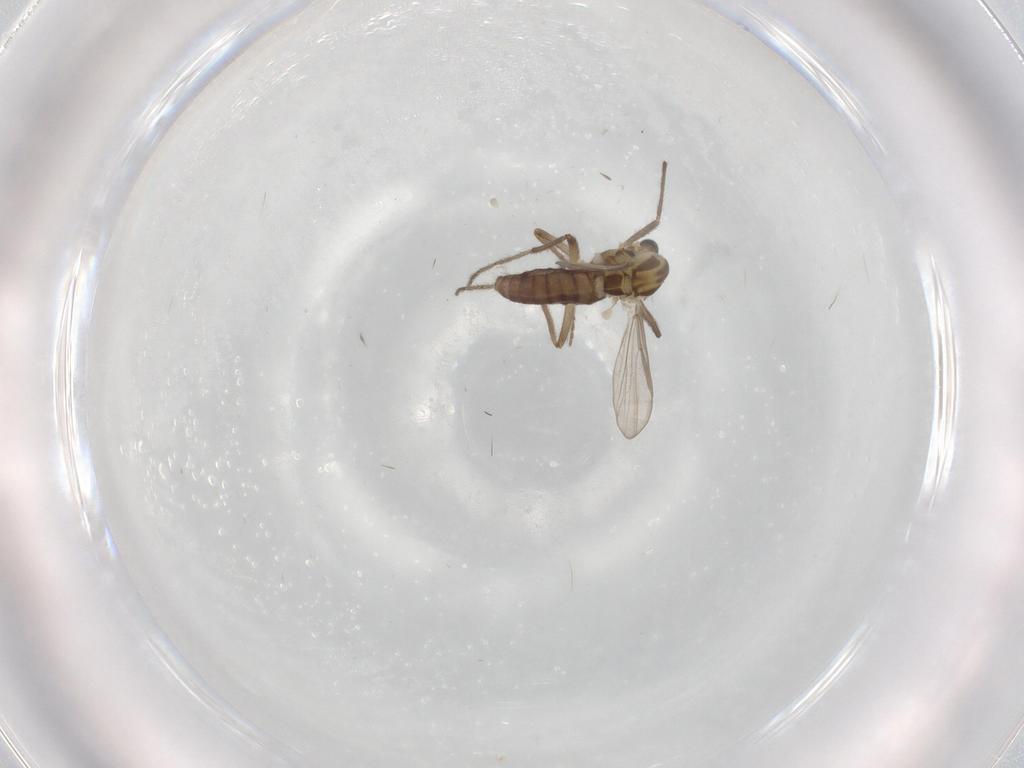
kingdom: Animalia
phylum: Arthropoda
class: Insecta
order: Diptera
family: Chironomidae
